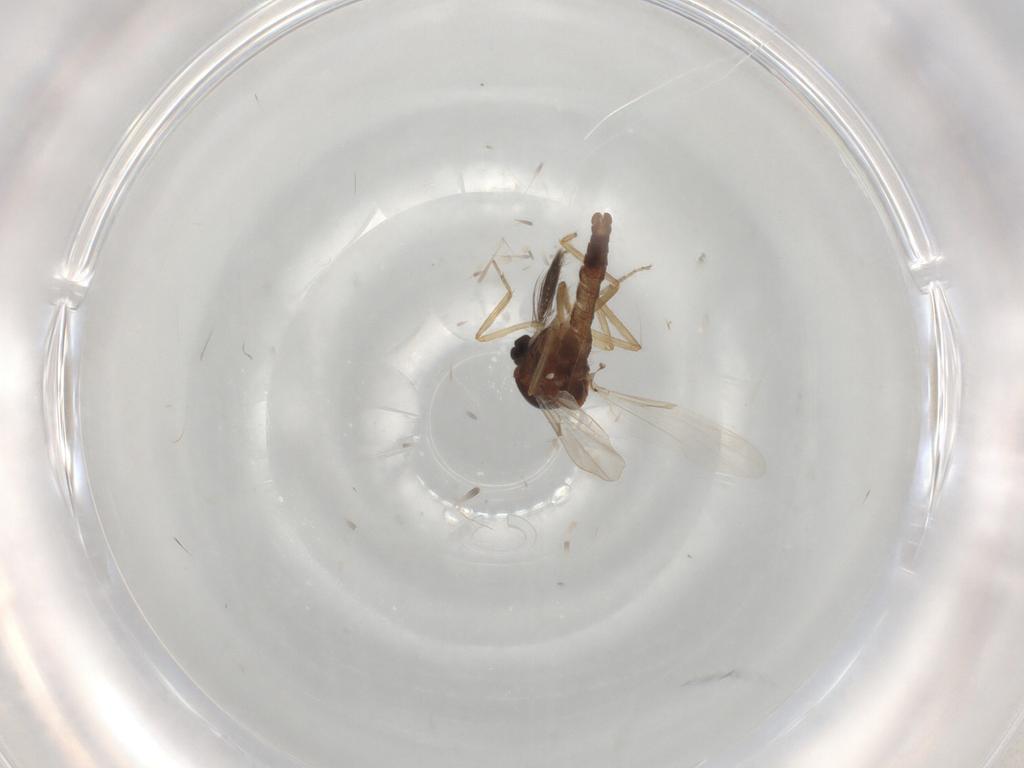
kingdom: Animalia
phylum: Arthropoda
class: Insecta
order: Diptera
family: Ceratopogonidae
